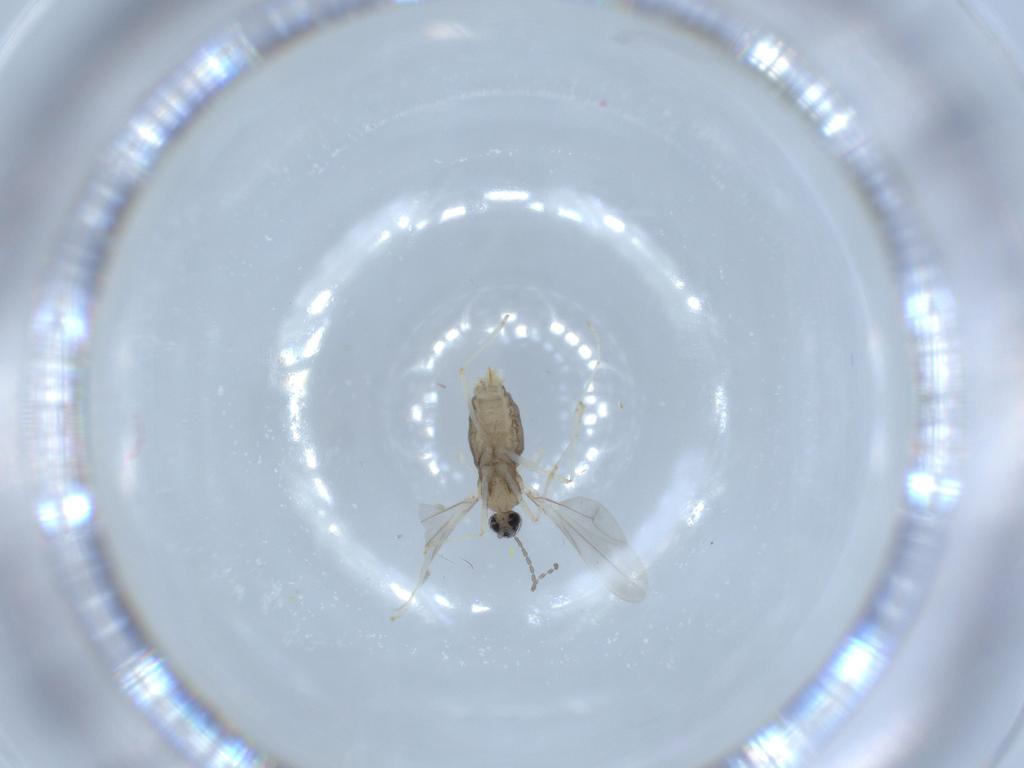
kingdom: Animalia
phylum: Arthropoda
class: Insecta
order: Diptera
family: Cecidomyiidae
